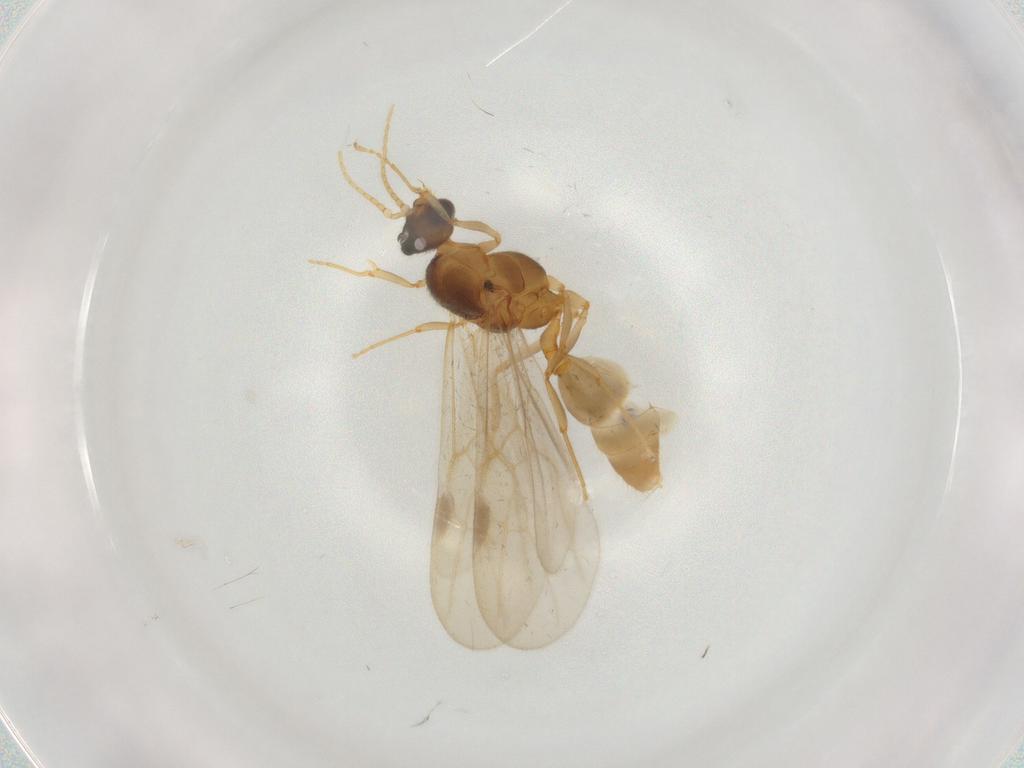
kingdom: Animalia
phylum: Arthropoda
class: Insecta
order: Hymenoptera
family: Formicidae
